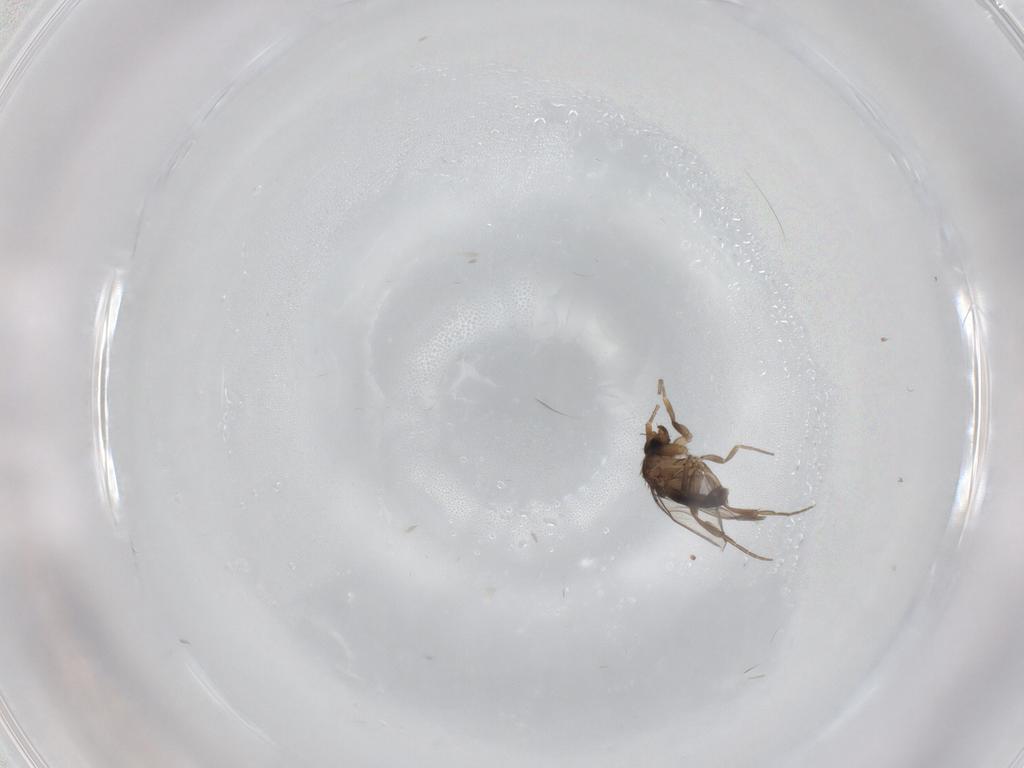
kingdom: Animalia
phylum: Arthropoda
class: Insecta
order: Diptera
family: Phoridae
